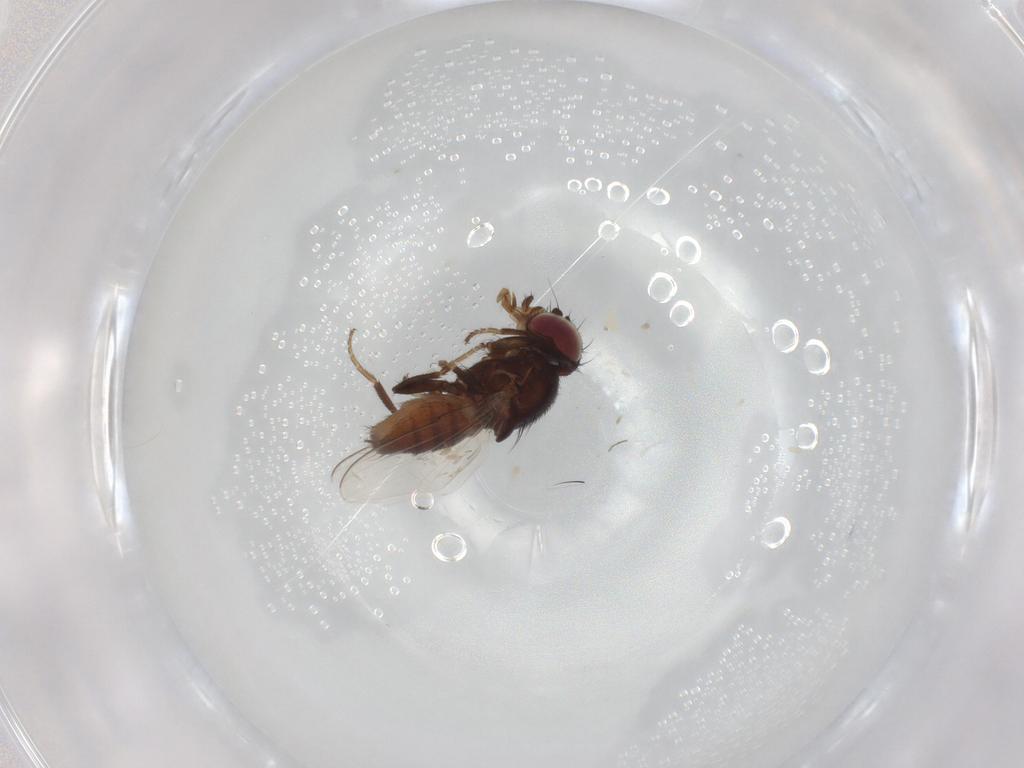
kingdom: Animalia
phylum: Arthropoda
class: Insecta
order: Diptera
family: Milichiidae
